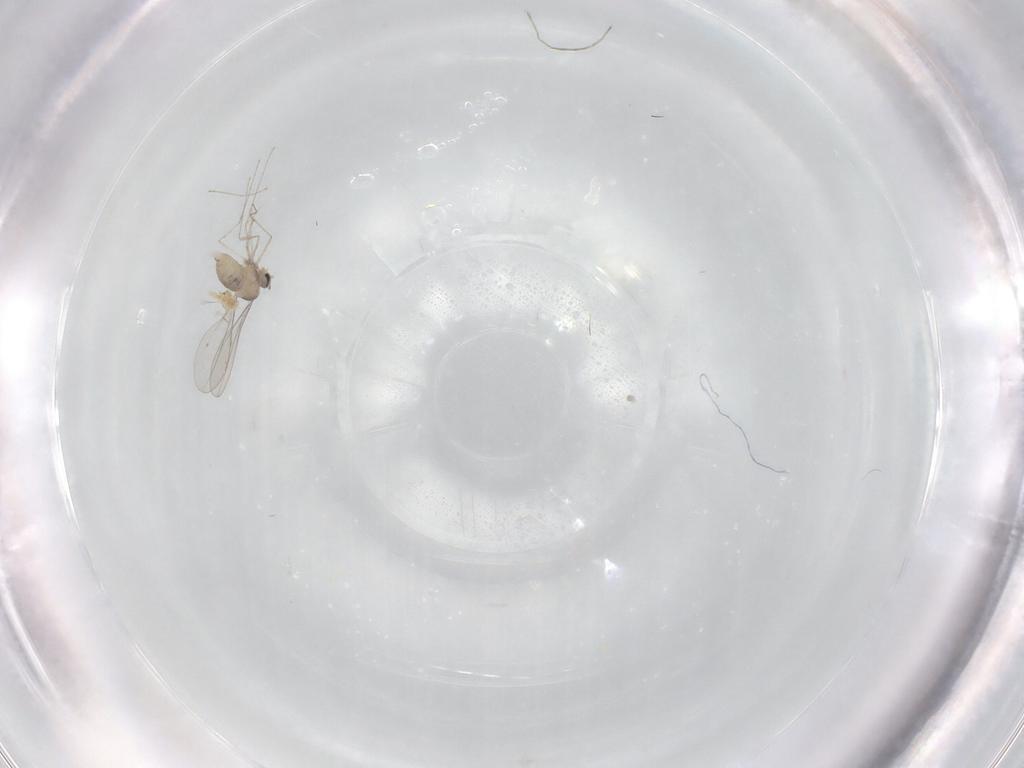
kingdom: Animalia
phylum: Arthropoda
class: Insecta
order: Diptera
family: Cecidomyiidae
